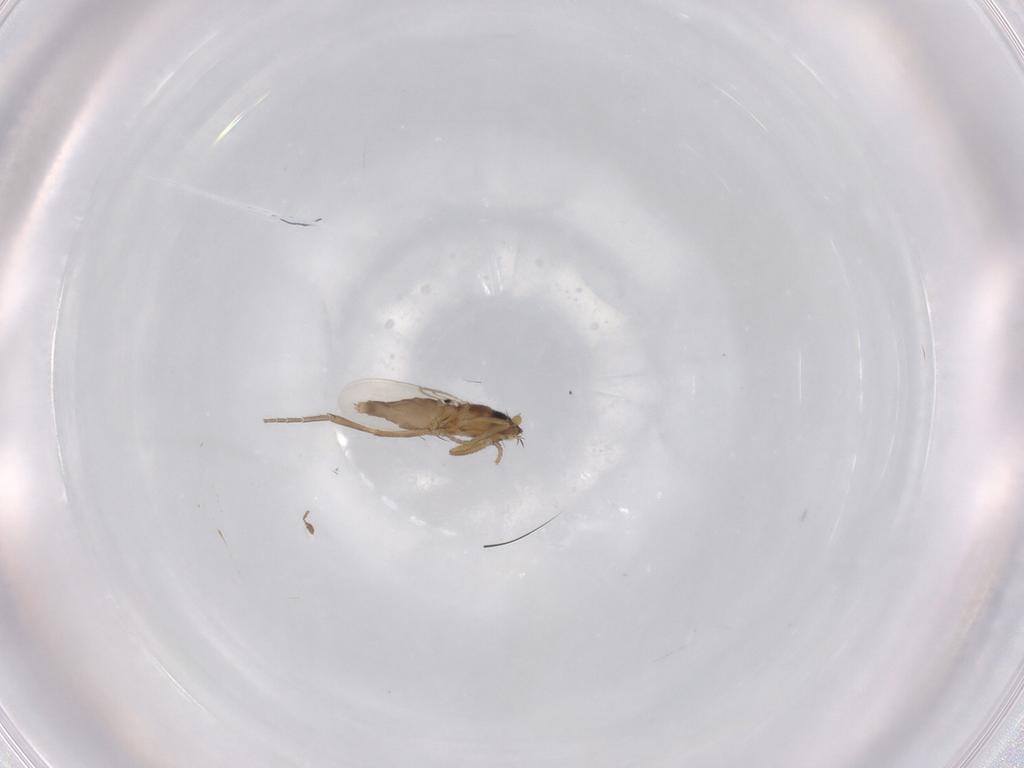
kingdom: Animalia
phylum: Arthropoda
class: Insecta
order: Diptera
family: Phoridae
